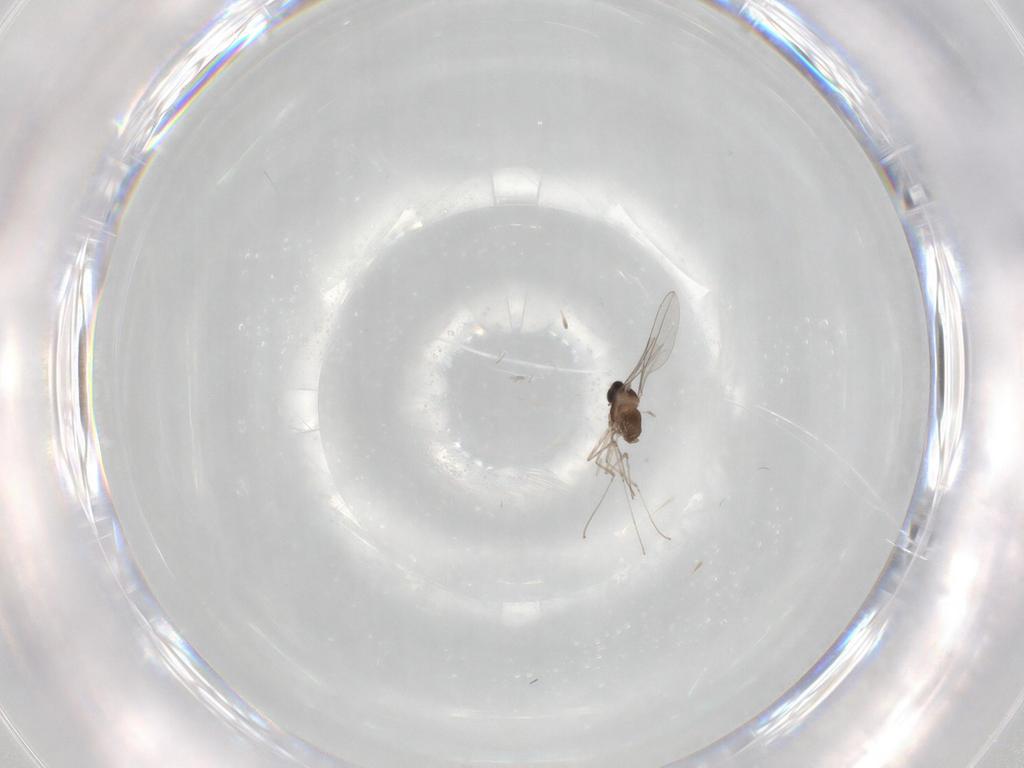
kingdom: Animalia
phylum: Arthropoda
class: Insecta
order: Diptera
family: Cecidomyiidae
